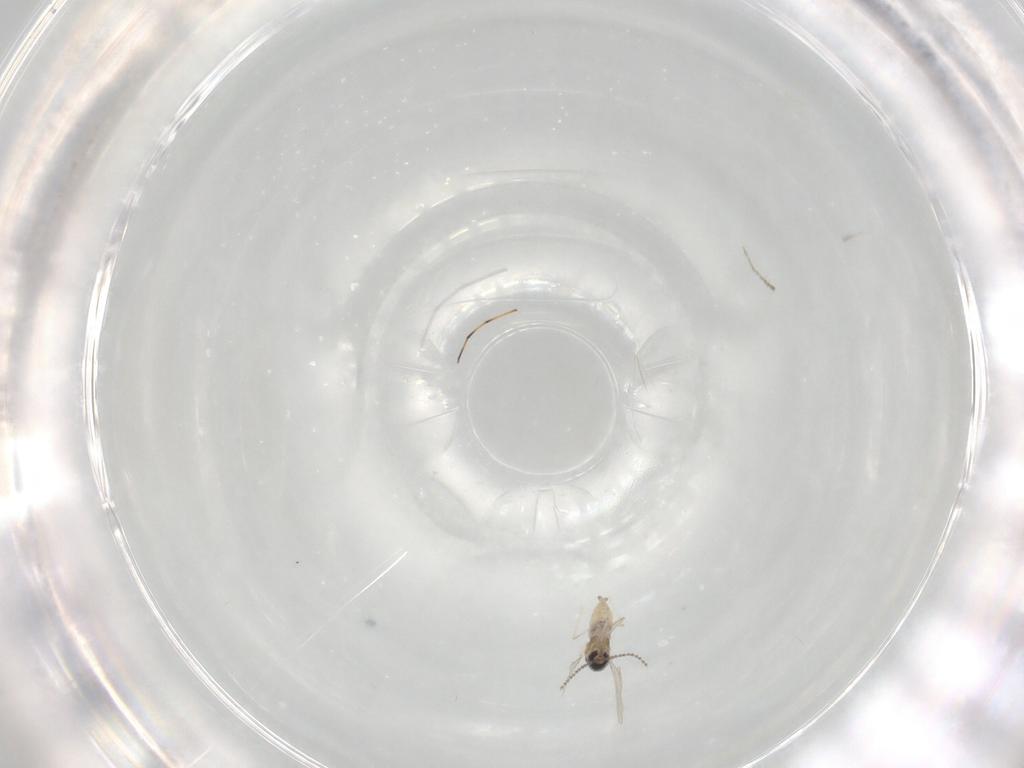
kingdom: Animalia
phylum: Arthropoda
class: Insecta
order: Diptera
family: Cecidomyiidae
